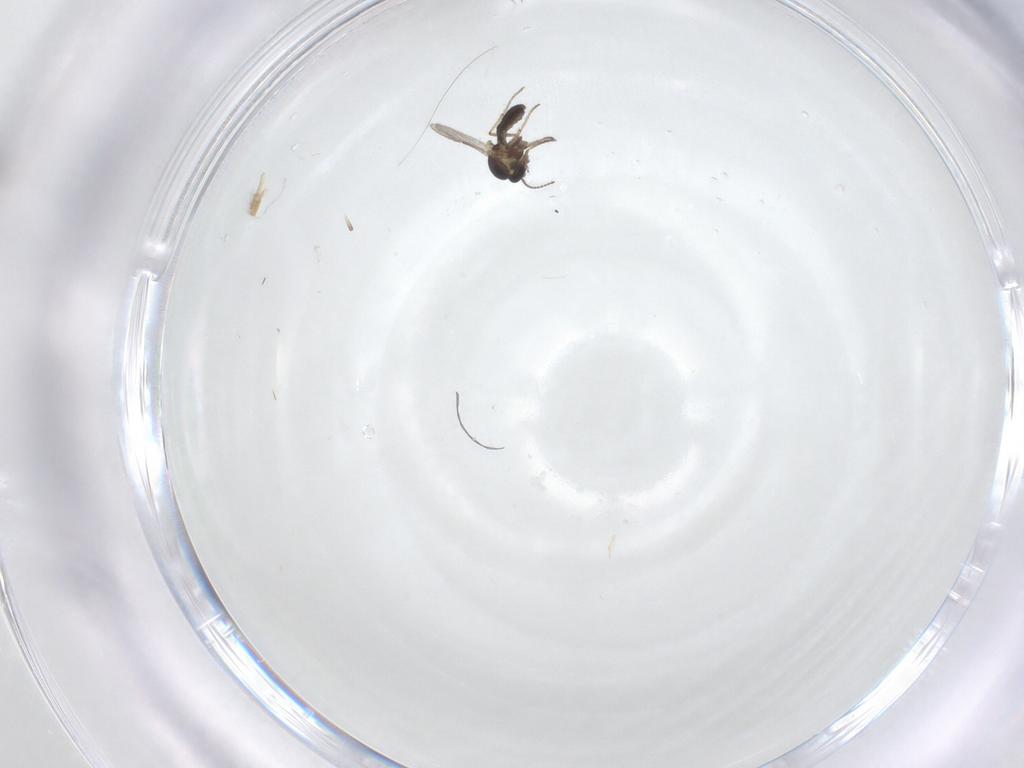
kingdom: Animalia
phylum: Arthropoda
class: Insecta
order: Diptera
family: Ceratopogonidae
